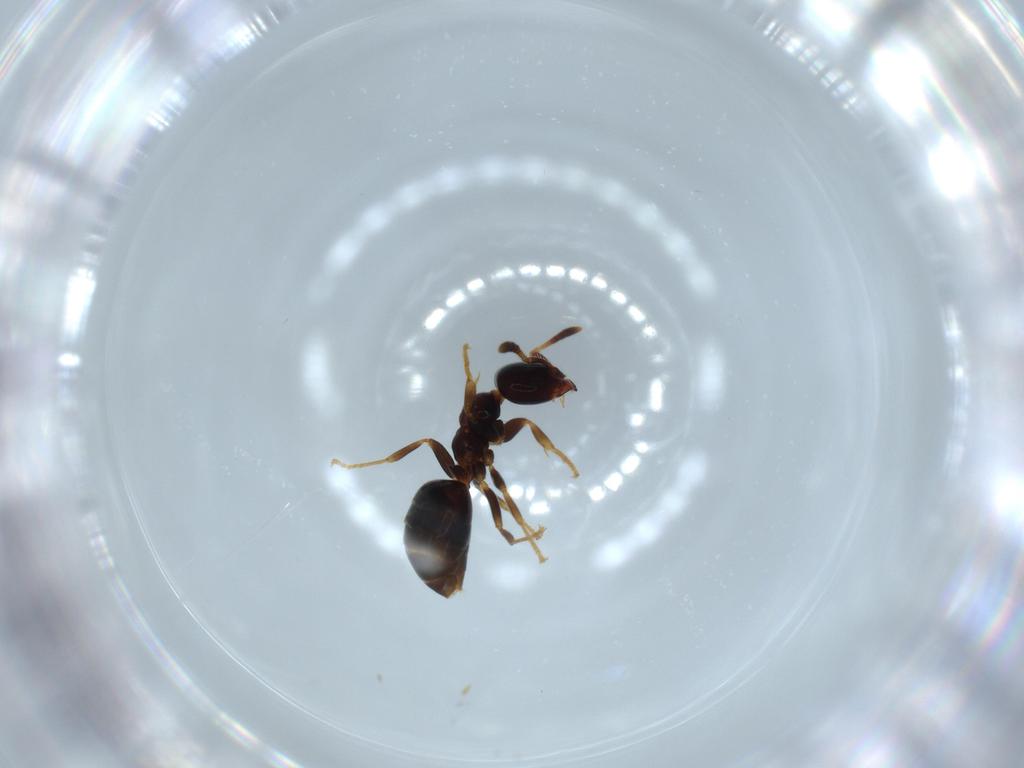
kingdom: Animalia
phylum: Arthropoda
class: Insecta
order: Hymenoptera
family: Formicidae
